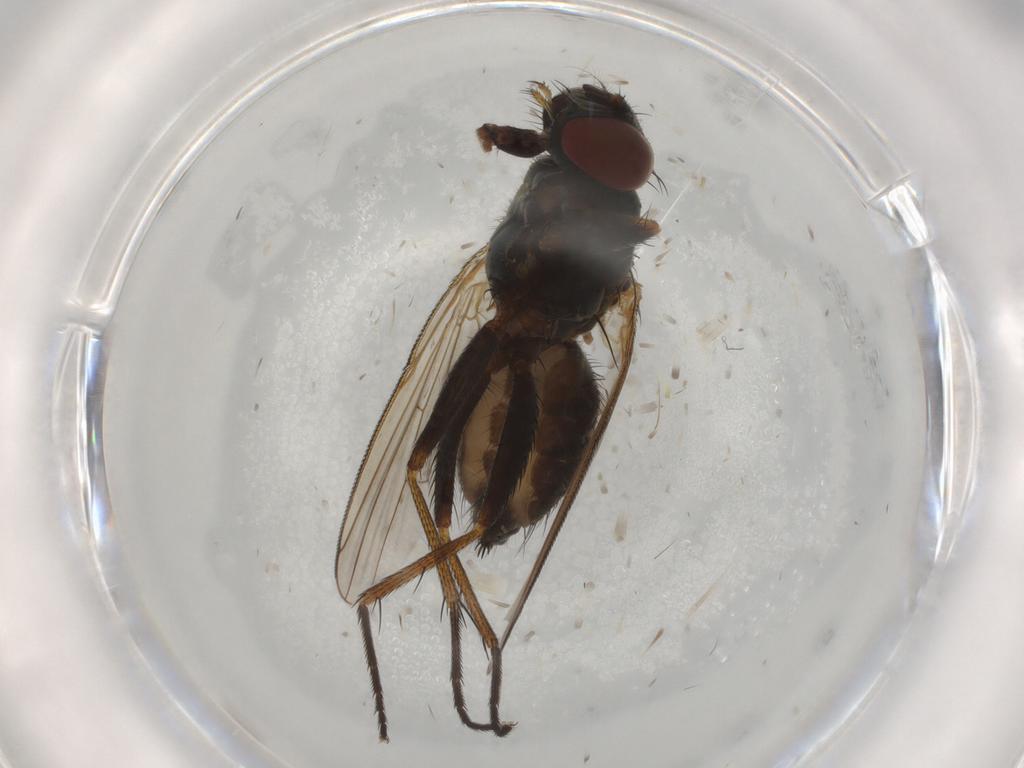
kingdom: Animalia
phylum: Arthropoda
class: Insecta
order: Diptera
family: Muscidae
